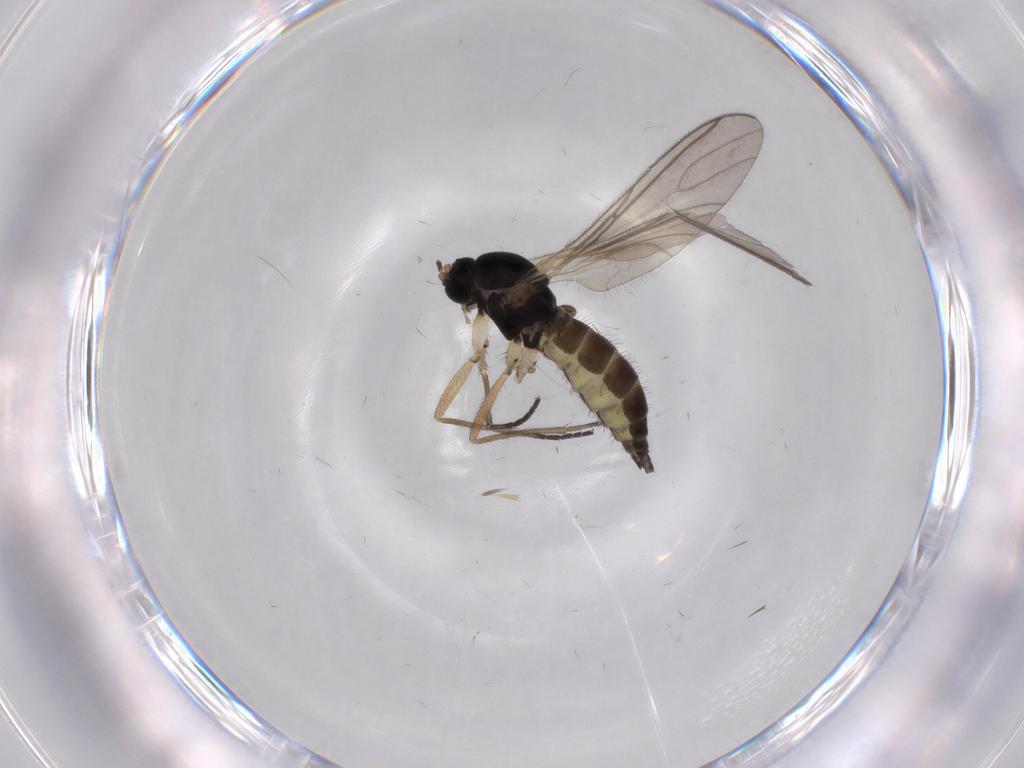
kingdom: Animalia
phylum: Arthropoda
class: Insecta
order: Diptera
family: Sciaridae
